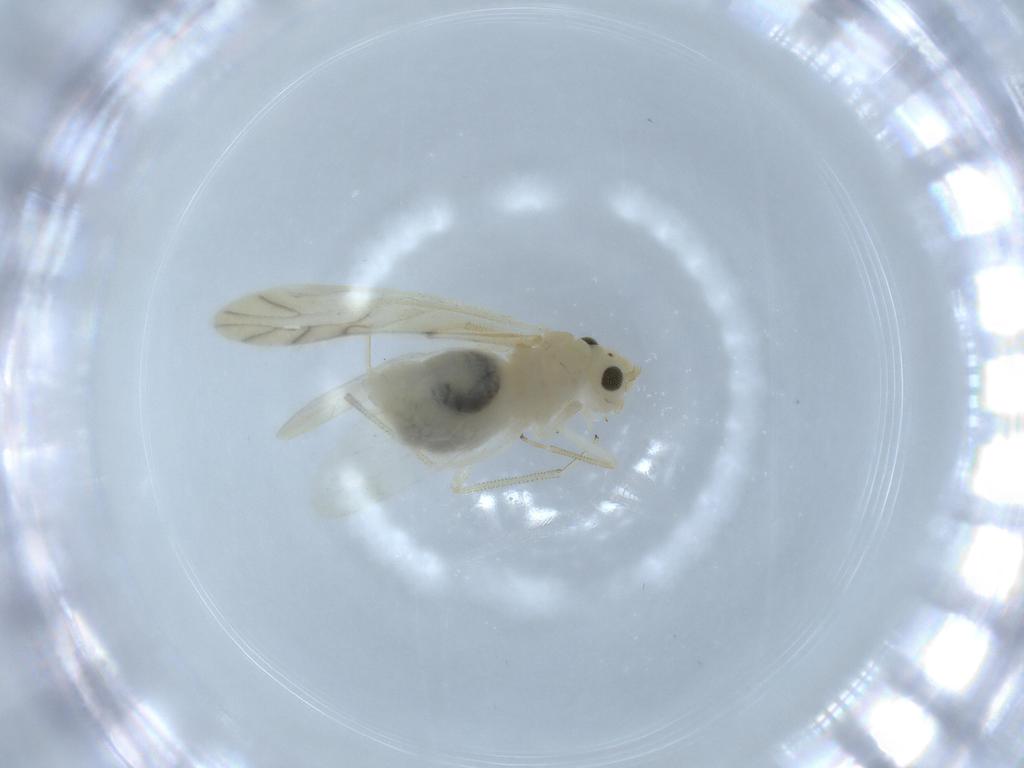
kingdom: Animalia
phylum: Arthropoda
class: Insecta
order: Psocodea
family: Caeciliusidae
